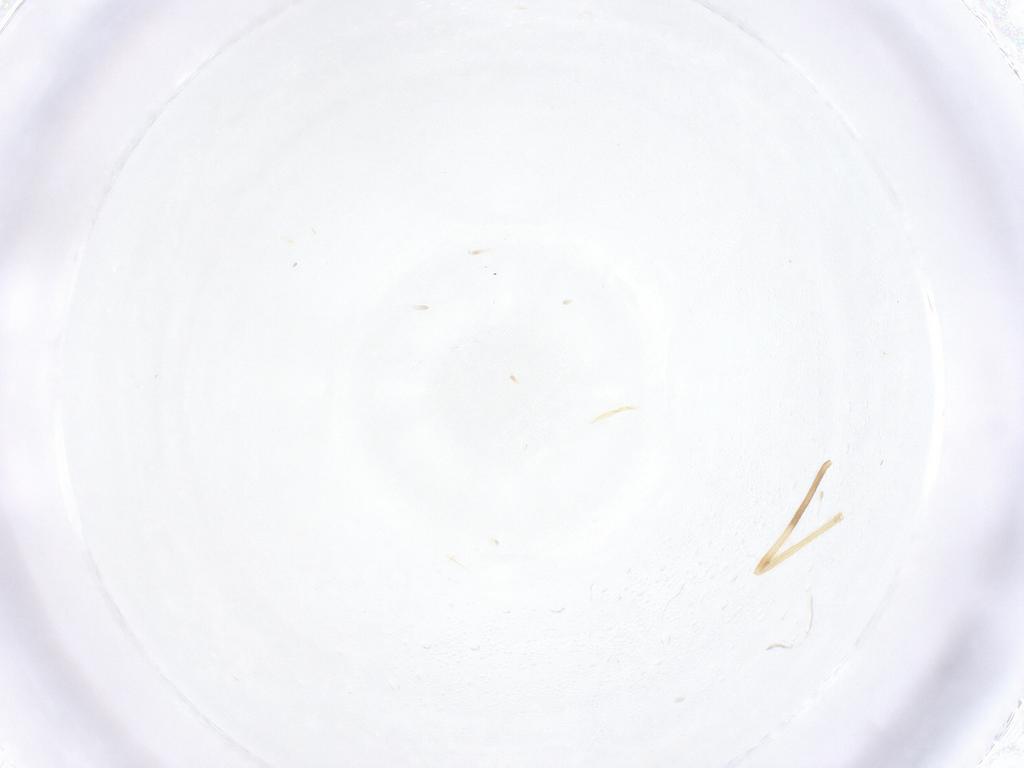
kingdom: Animalia
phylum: Arthropoda
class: Insecta
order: Diptera
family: Chironomidae
